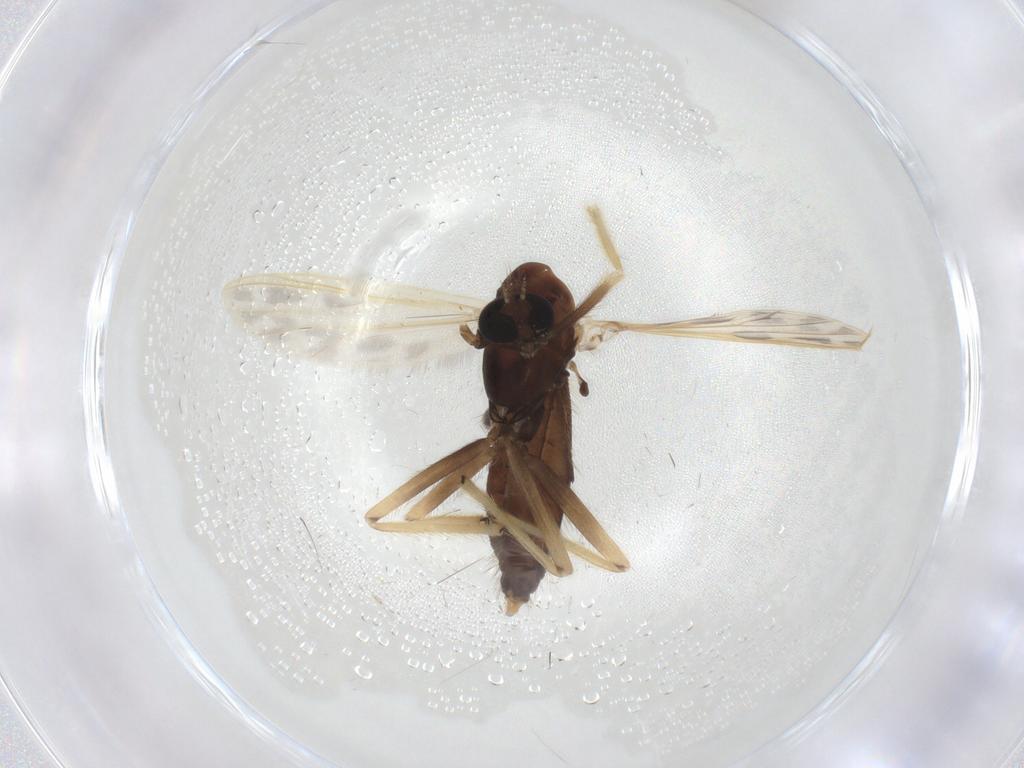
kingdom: Animalia
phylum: Arthropoda
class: Insecta
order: Diptera
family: Chironomidae
